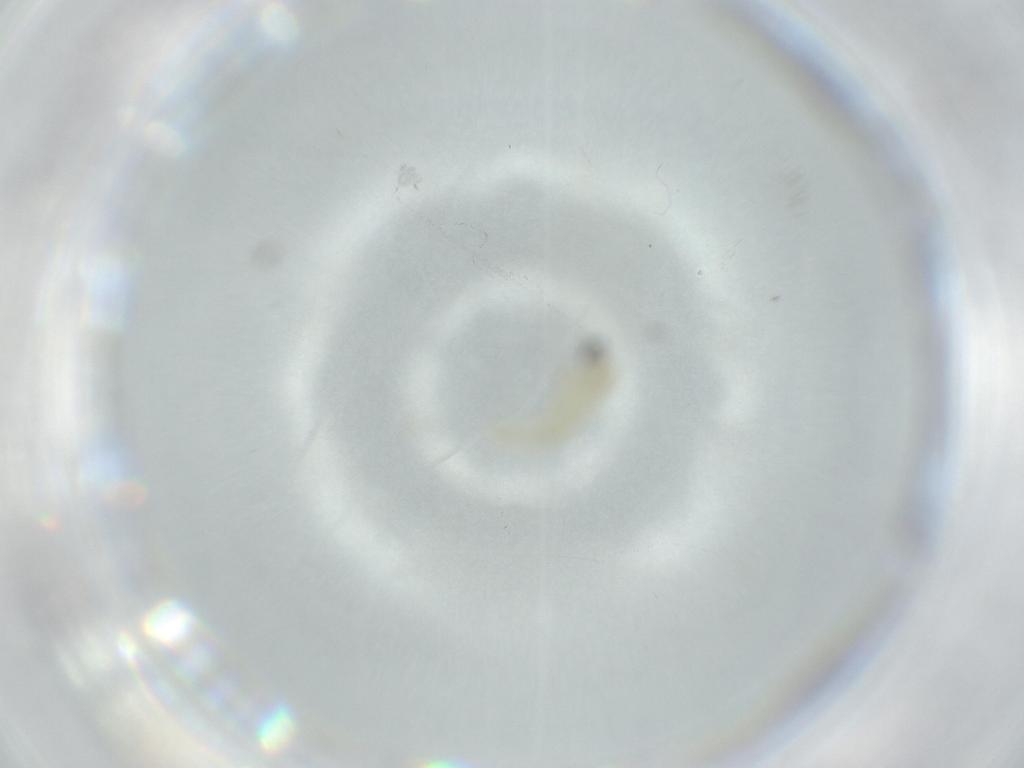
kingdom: Animalia
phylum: Arthropoda
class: Insecta
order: Diptera
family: Cecidomyiidae
